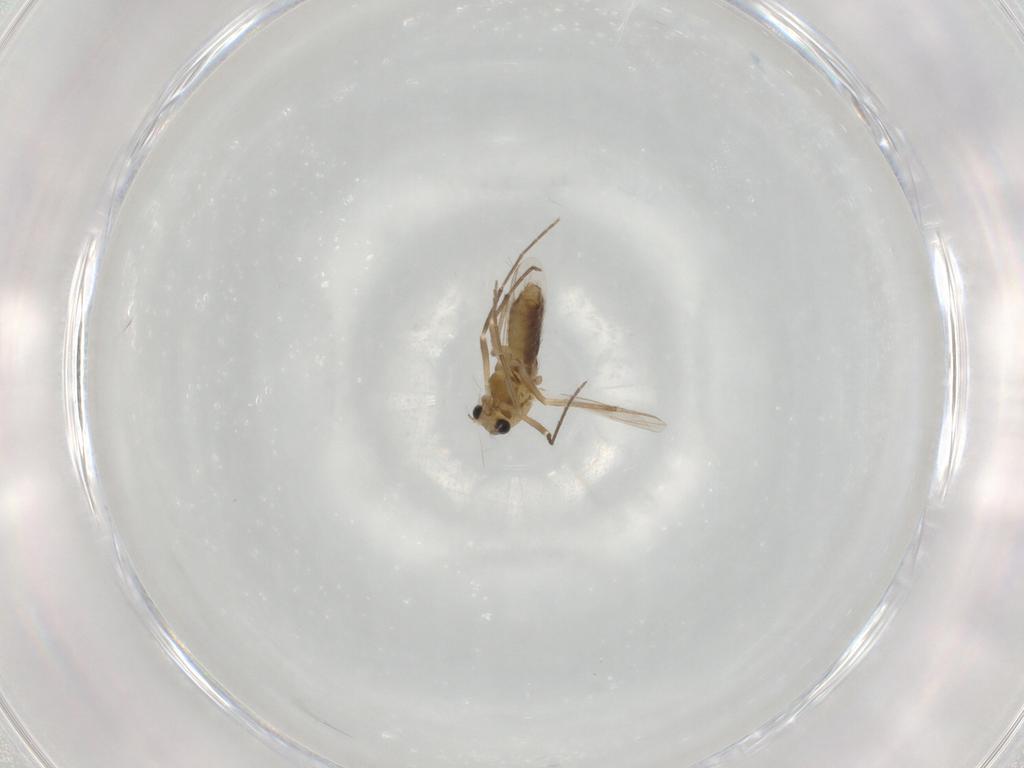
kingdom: Animalia
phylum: Arthropoda
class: Insecta
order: Diptera
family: Chironomidae
